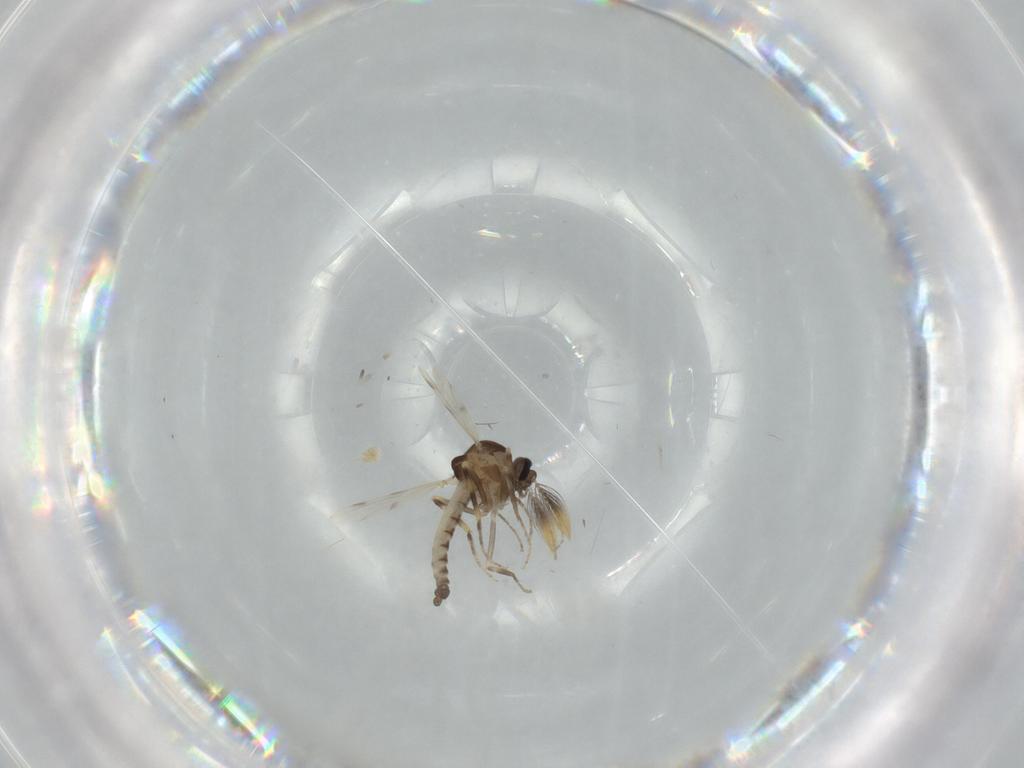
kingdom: Animalia
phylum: Arthropoda
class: Insecta
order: Diptera
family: Ceratopogonidae
